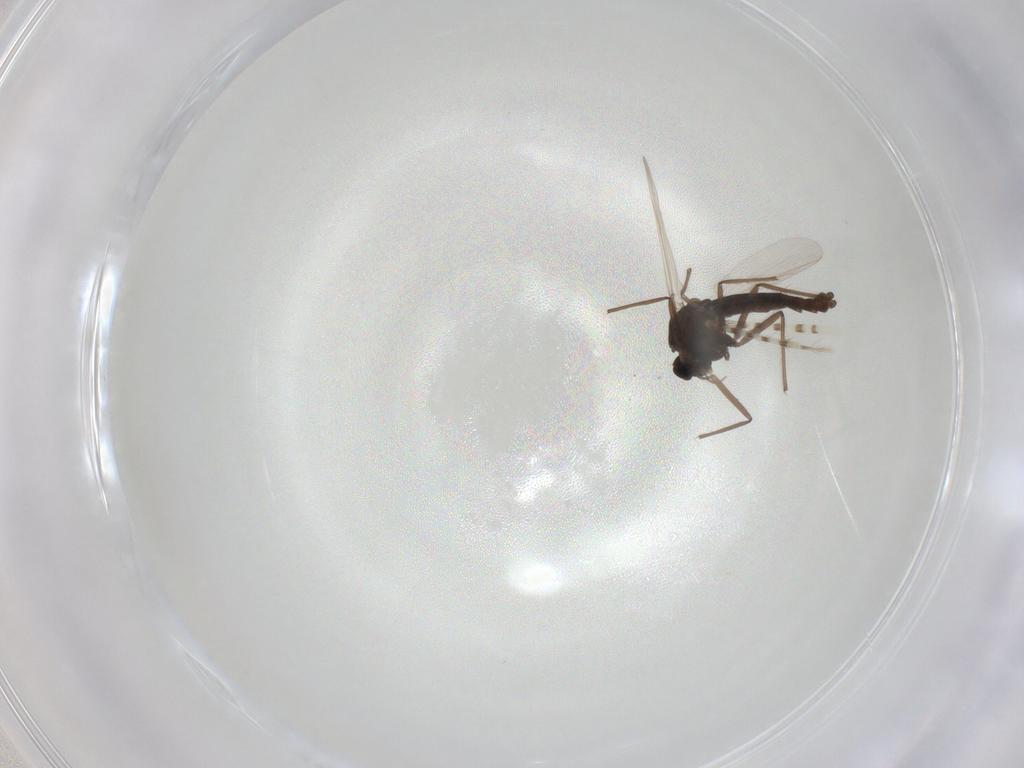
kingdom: Animalia
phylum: Arthropoda
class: Insecta
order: Diptera
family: Chironomidae
